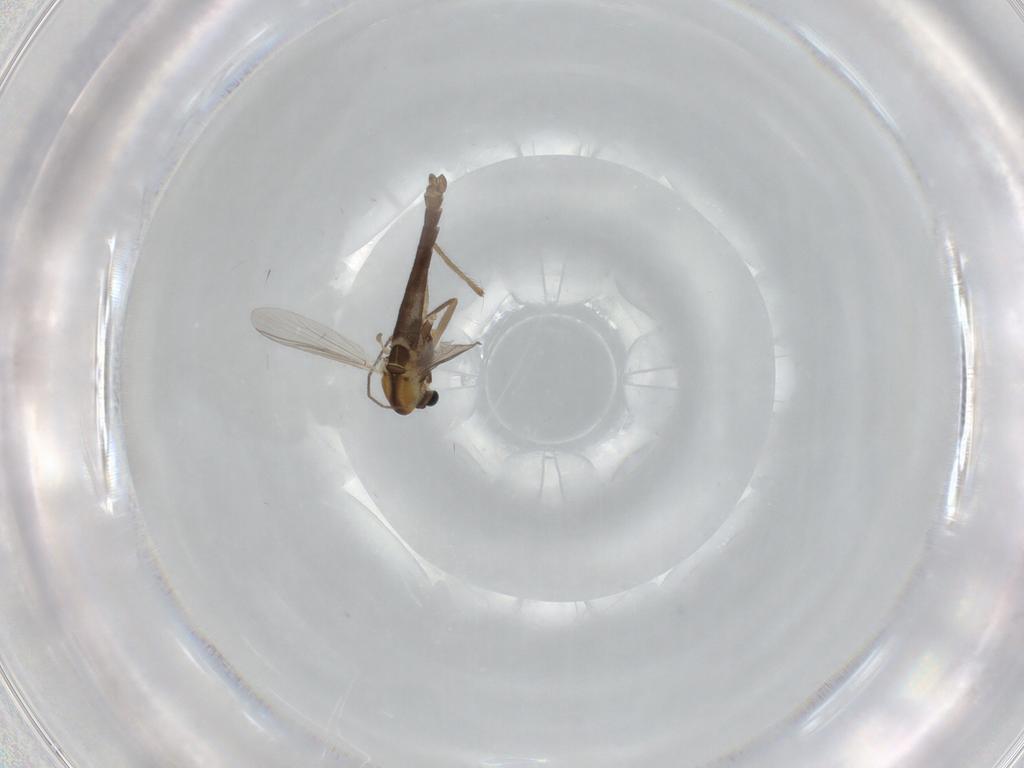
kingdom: Animalia
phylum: Arthropoda
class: Insecta
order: Diptera
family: Chironomidae
